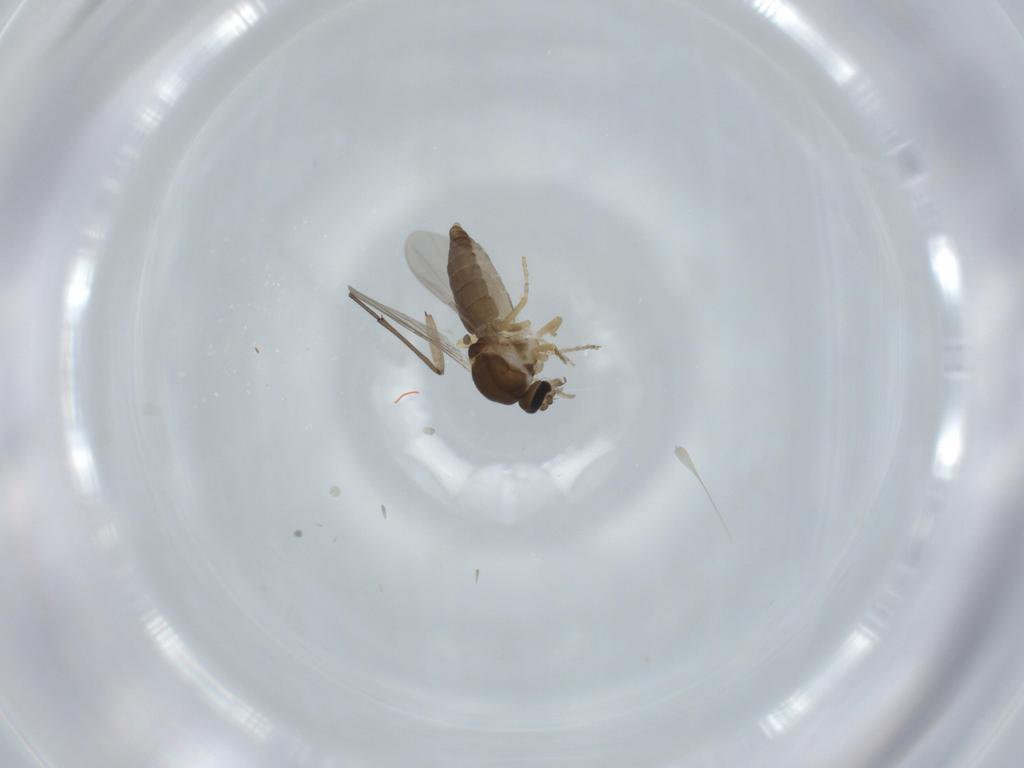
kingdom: Animalia
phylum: Arthropoda
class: Insecta
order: Diptera
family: Ceratopogonidae
